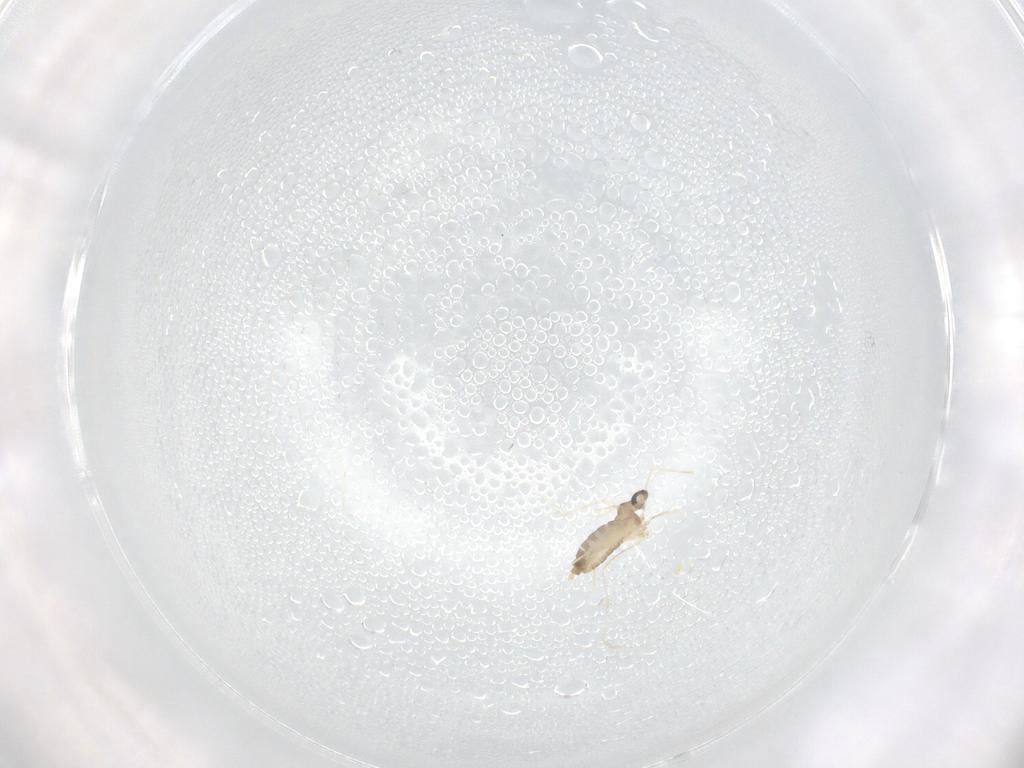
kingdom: Animalia
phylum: Arthropoda
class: Insecta
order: Diptera
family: Cecidomyiidae
